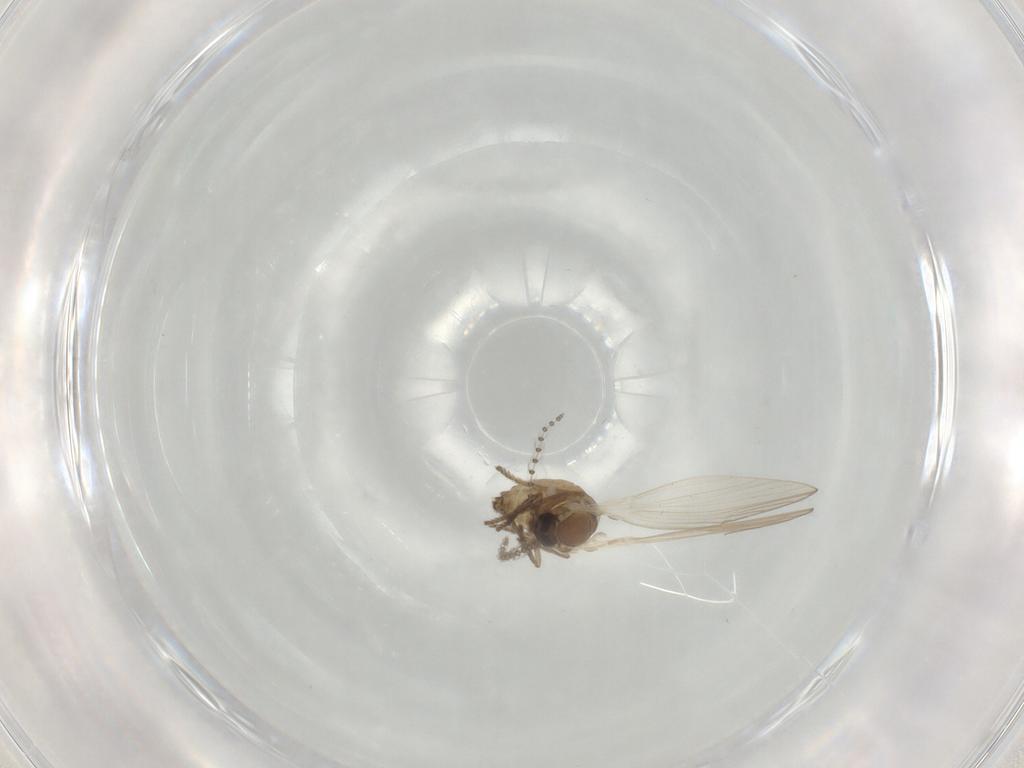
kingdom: Animalia
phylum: Arthropoda
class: Insecta
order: Diptera
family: Psychodidae
